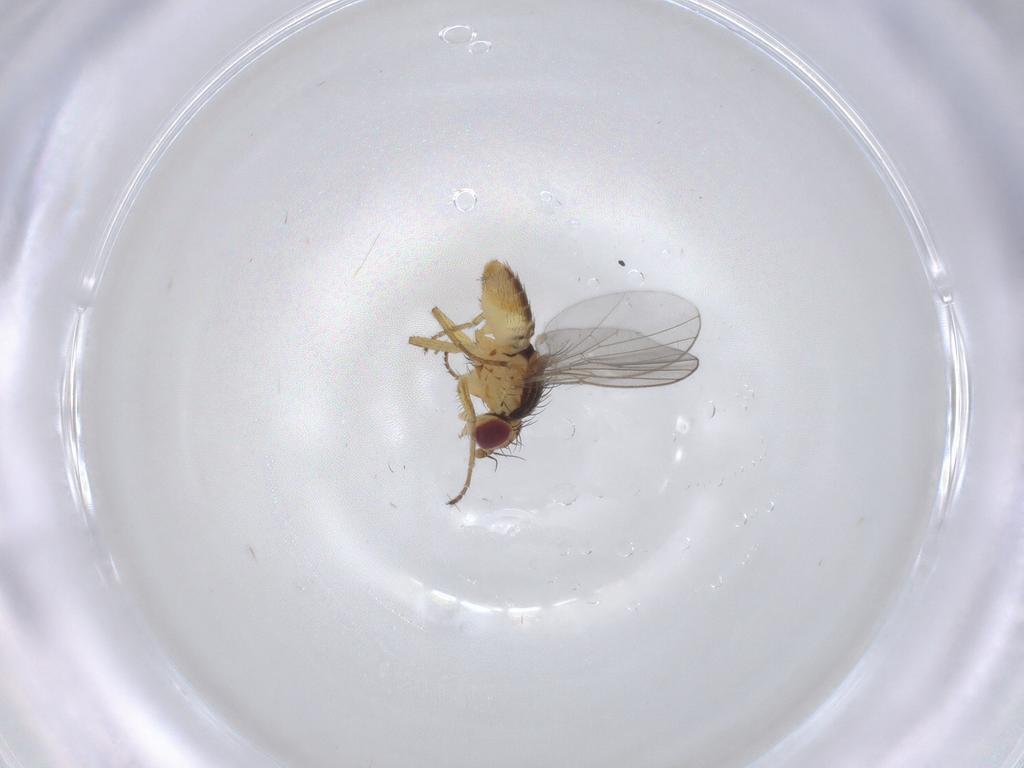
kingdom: Animalia
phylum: Arthropoda
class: Insecta
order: Diptera
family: Agromyzidae
